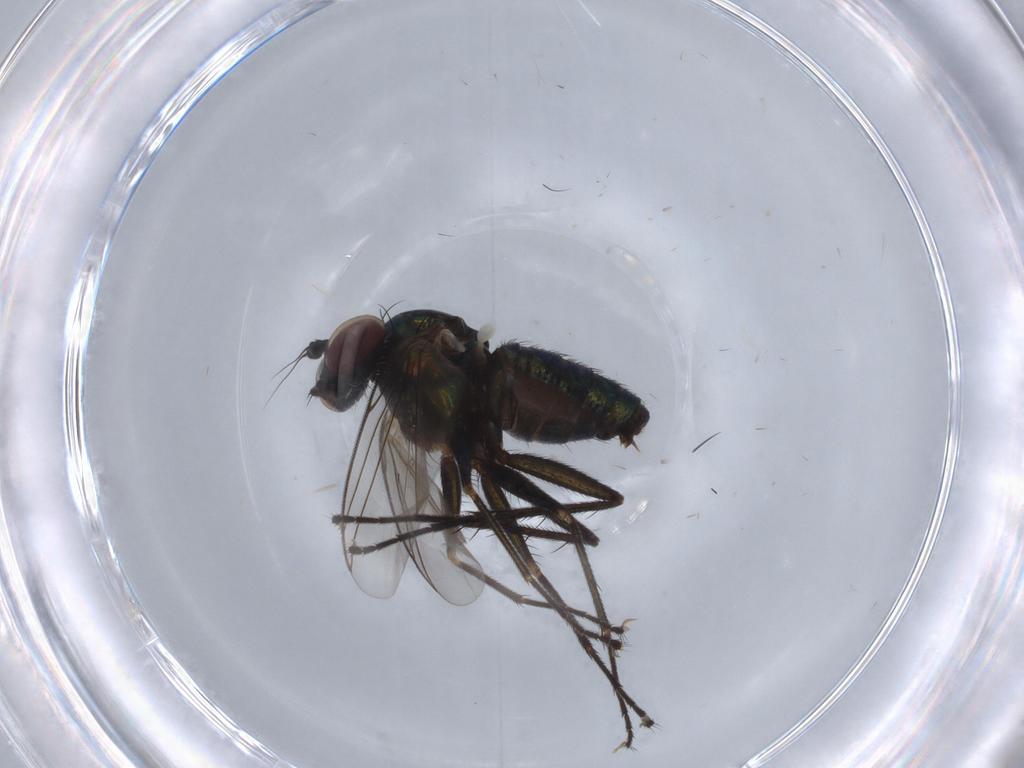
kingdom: Animalia
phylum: Arthropoda
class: Insecta
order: Diptera
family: Dolichopodidae
